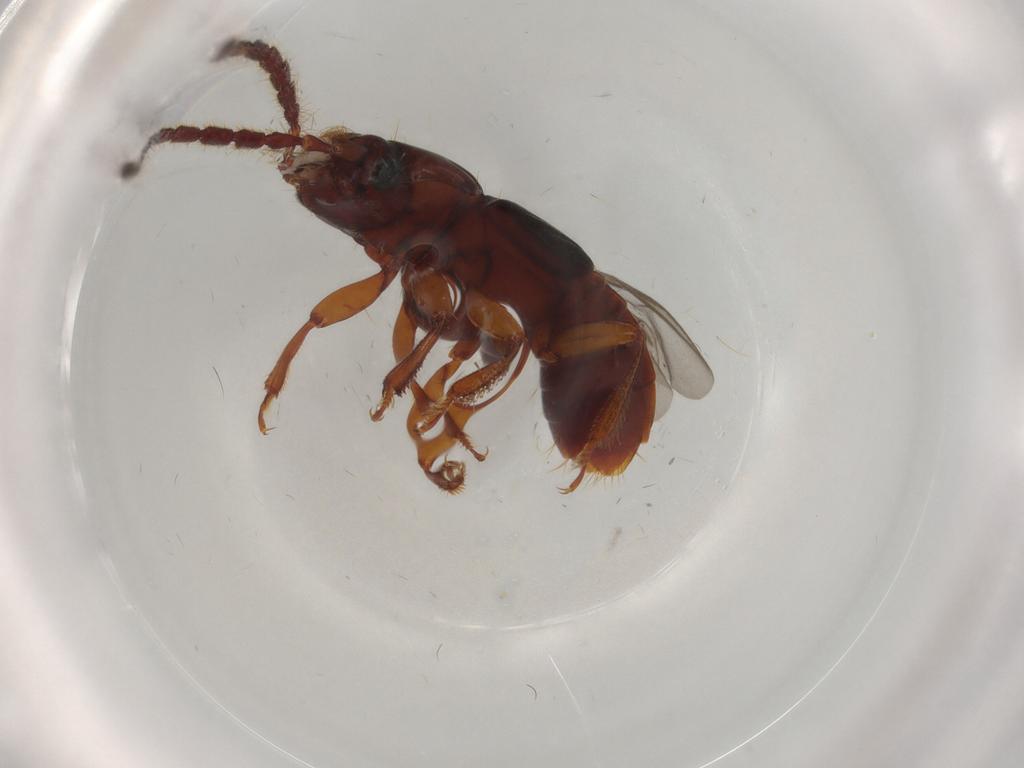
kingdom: Animalia
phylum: Arthropoda
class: Insecta
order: Coleoptera
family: Staphylinidae
